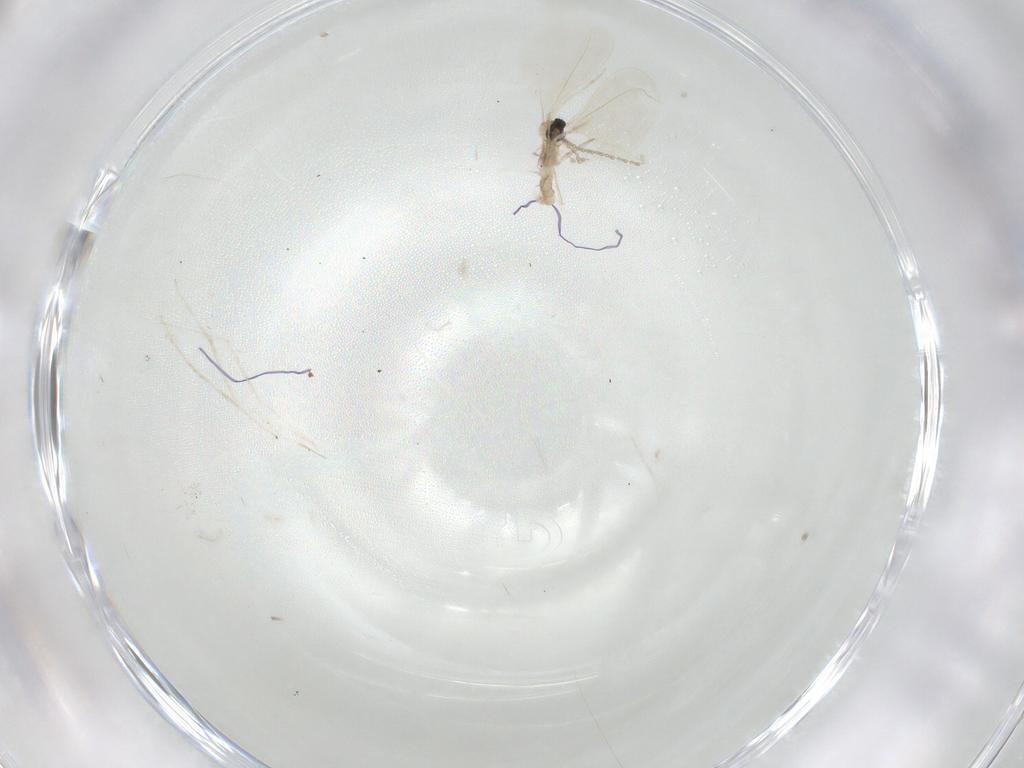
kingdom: Animalia
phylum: Arthropoda
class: Insecta
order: Diptera
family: Cecidomyiidae
